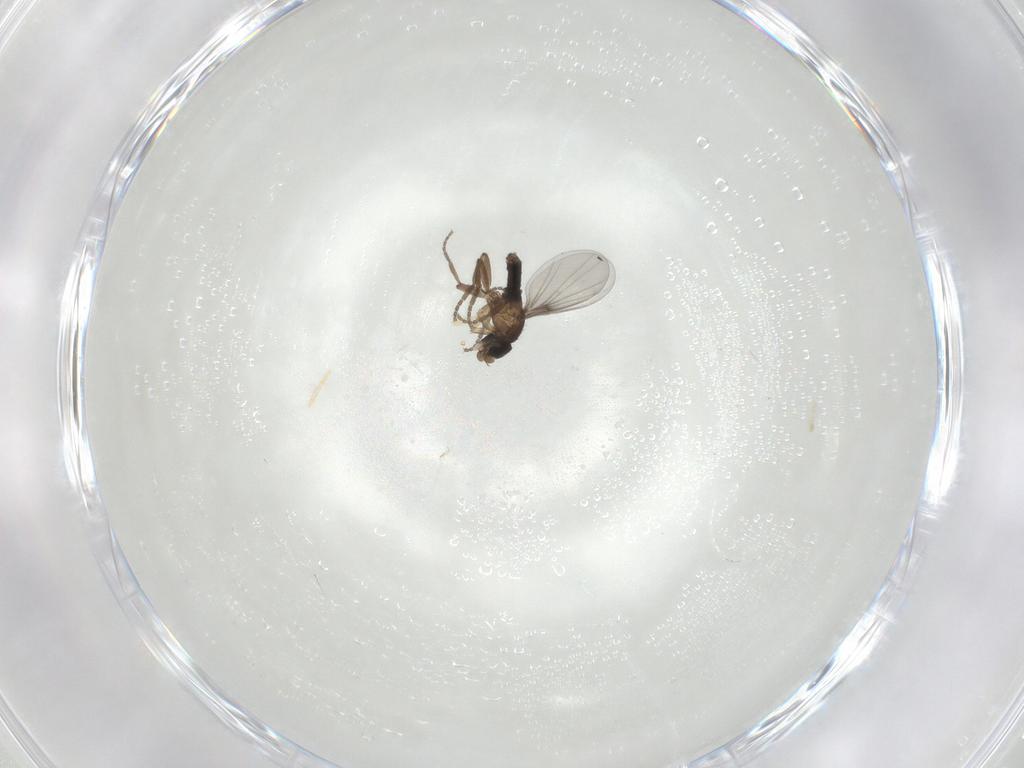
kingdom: Animalia
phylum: Arthropoda
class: Insecta
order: Diptera
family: Phoridae
